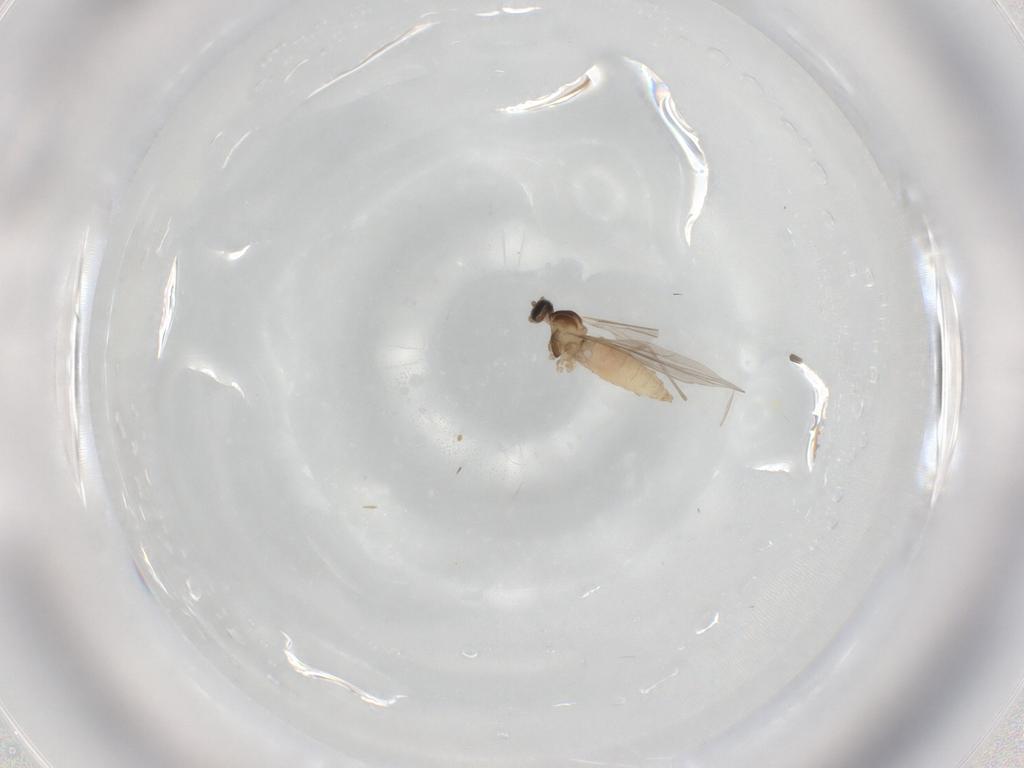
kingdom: Animalia
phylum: Arthropoda
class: Insecta
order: Diptera
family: Cecidomyiidae
